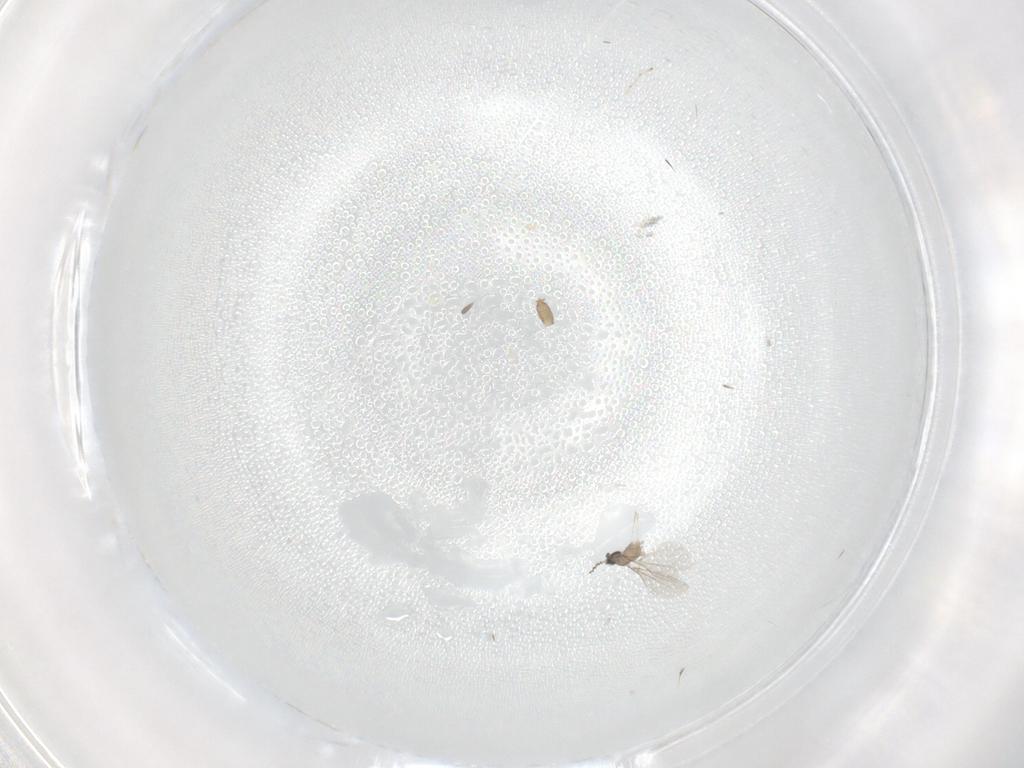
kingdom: Animalia
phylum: Arthropoda
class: Insecta
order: Diptera
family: Cecidomyiidae
